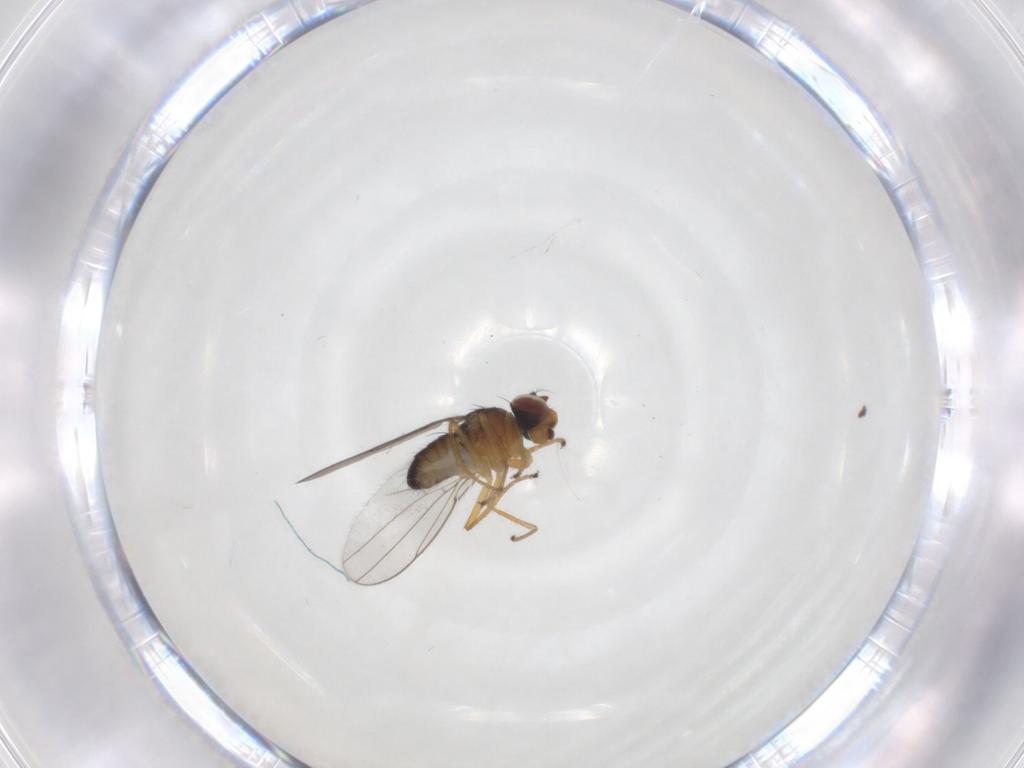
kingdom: Animalia
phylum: Arthropoda
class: Insecta
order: Diptera
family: Ephydridae
